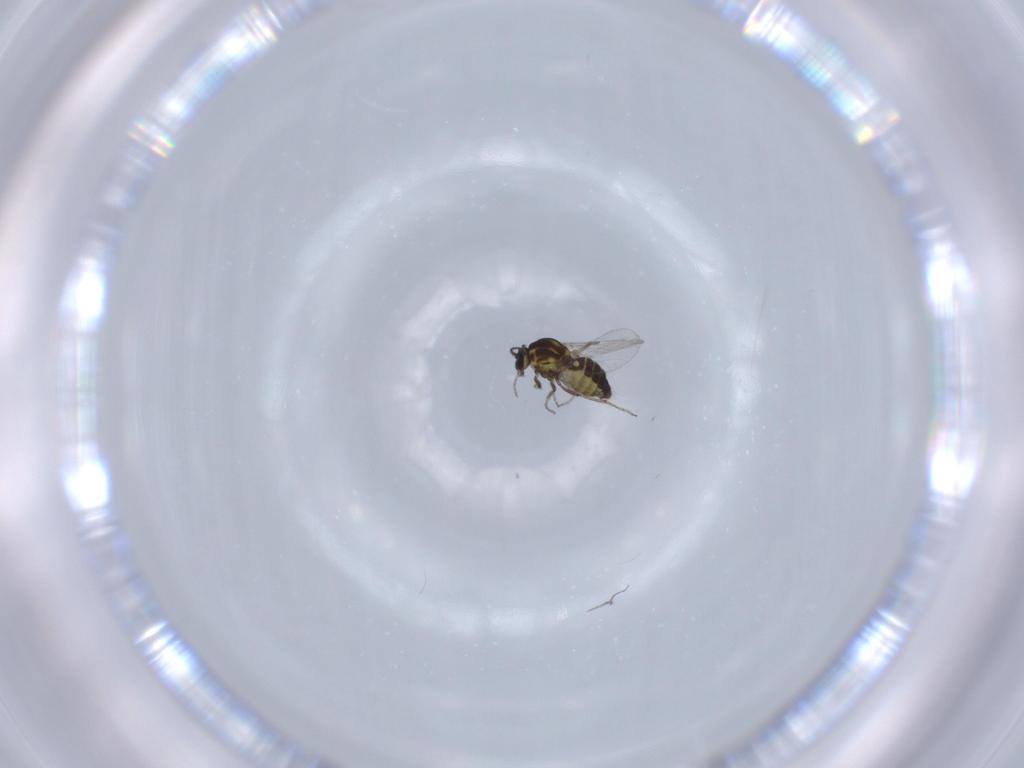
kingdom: Animalia
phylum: Arthropoda
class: Insecta
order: Diptera
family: Ceratopogonidae
